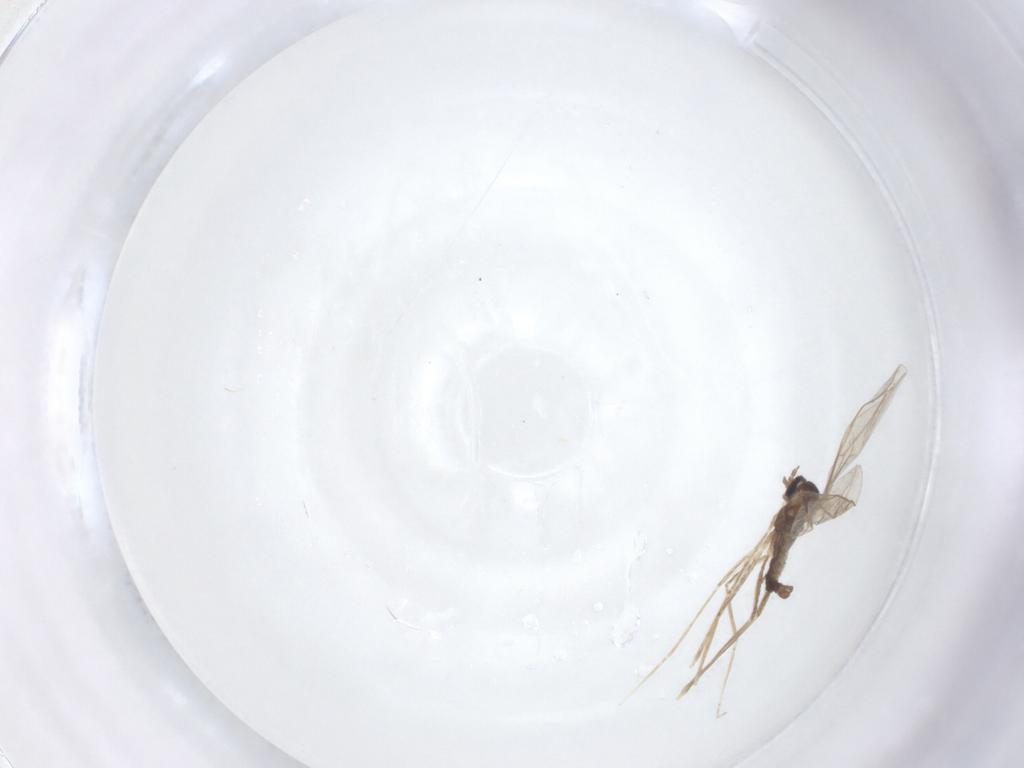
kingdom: Animalia
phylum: Arthropoda
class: Insecta
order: Diptera
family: Cecidomyiidae
